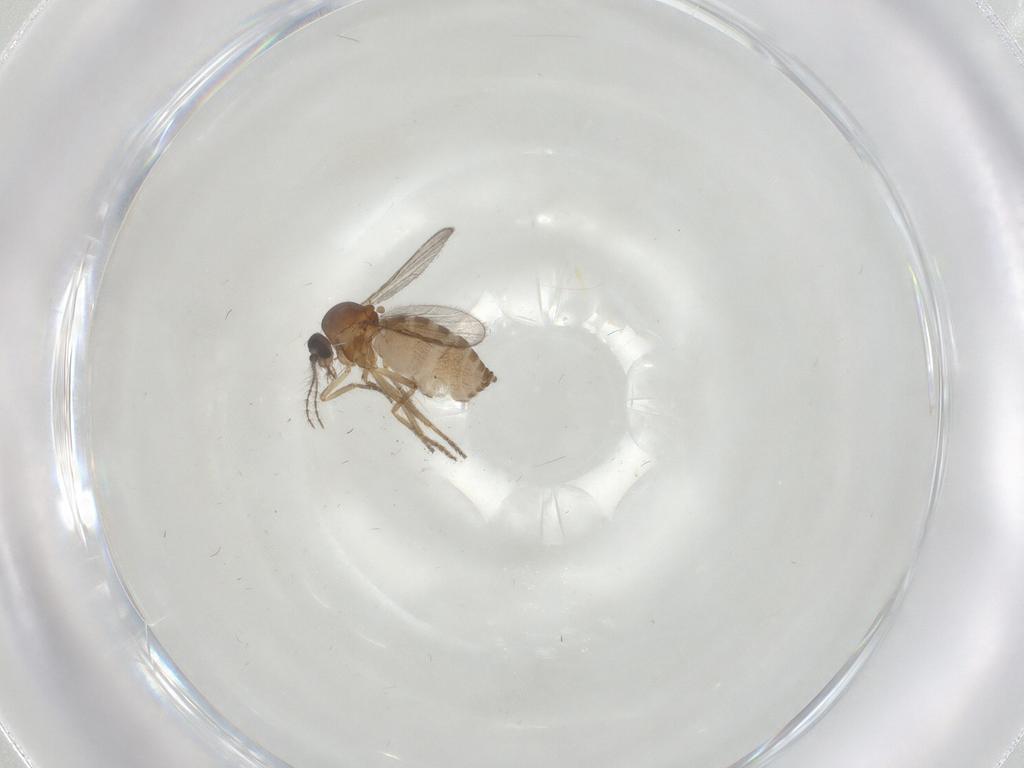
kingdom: Animalia
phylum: Arthropoda
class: Insecta
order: Diptera
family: Ceratopogonidae
